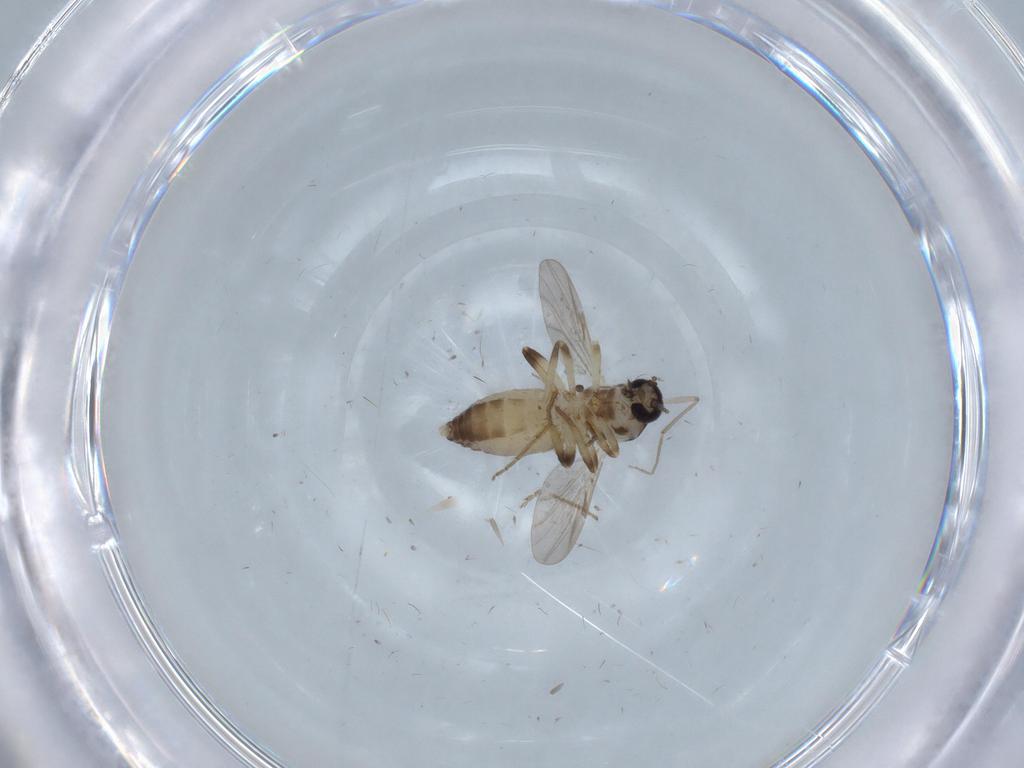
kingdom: Animalia
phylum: Arthropoda
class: Insecta
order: Diptera
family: Ceratopogonidae
